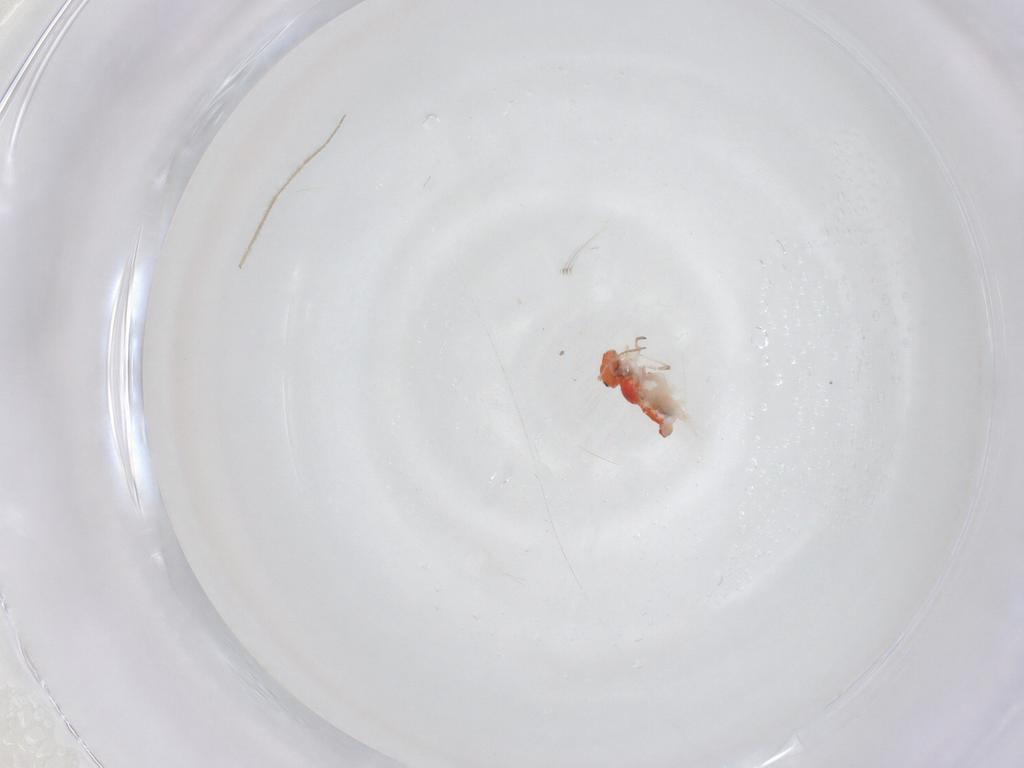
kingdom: Animalia
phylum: Arthropoda
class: Collembola
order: Symphypleona
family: Bourletiellidae
